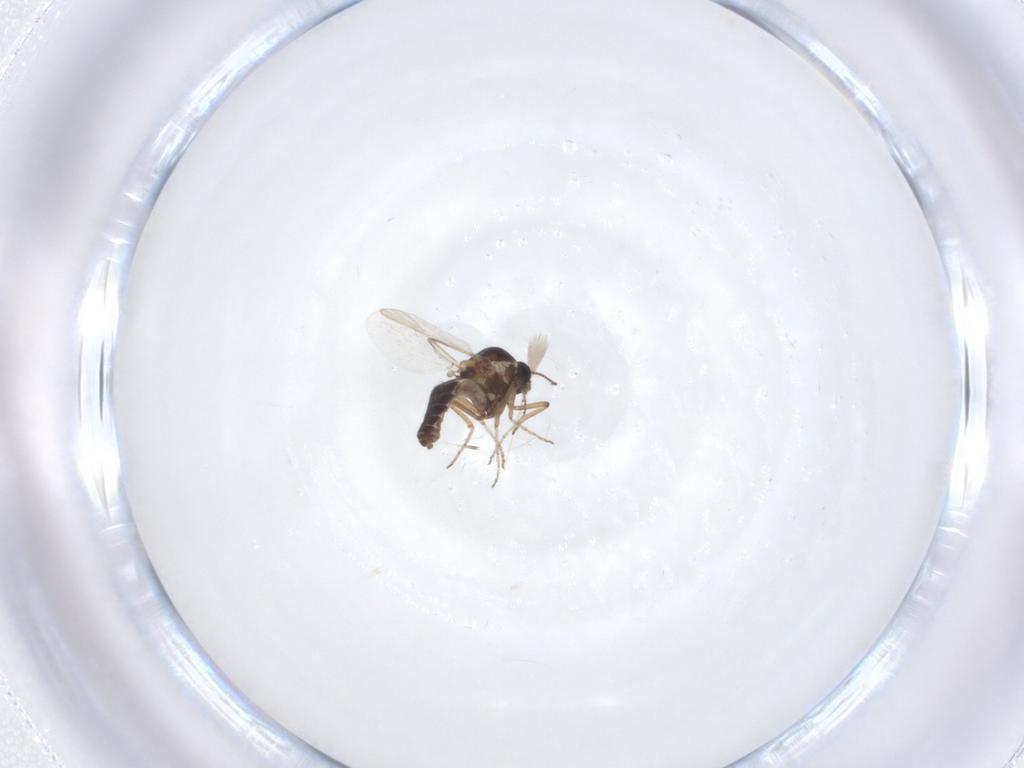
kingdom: Animalia
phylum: Arthropoda
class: Insecta
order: Diptera
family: Ceratopogonidae
